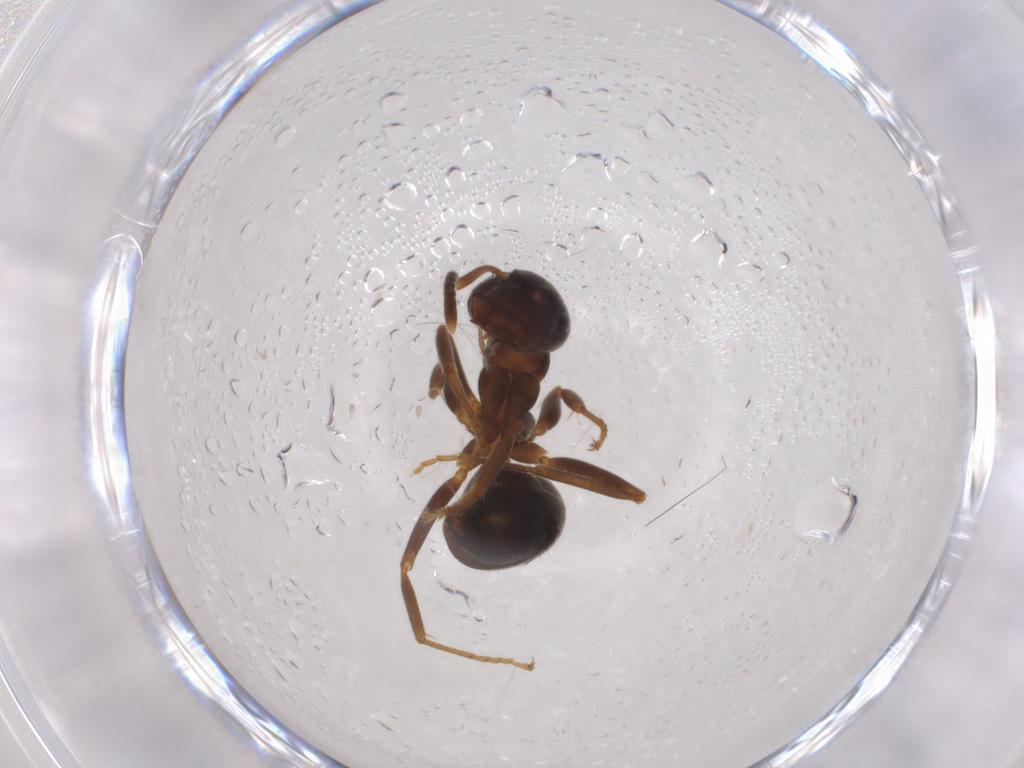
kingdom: Animalia
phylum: Arthropoda
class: Insecta
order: Hymenoptera
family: Formicidae
